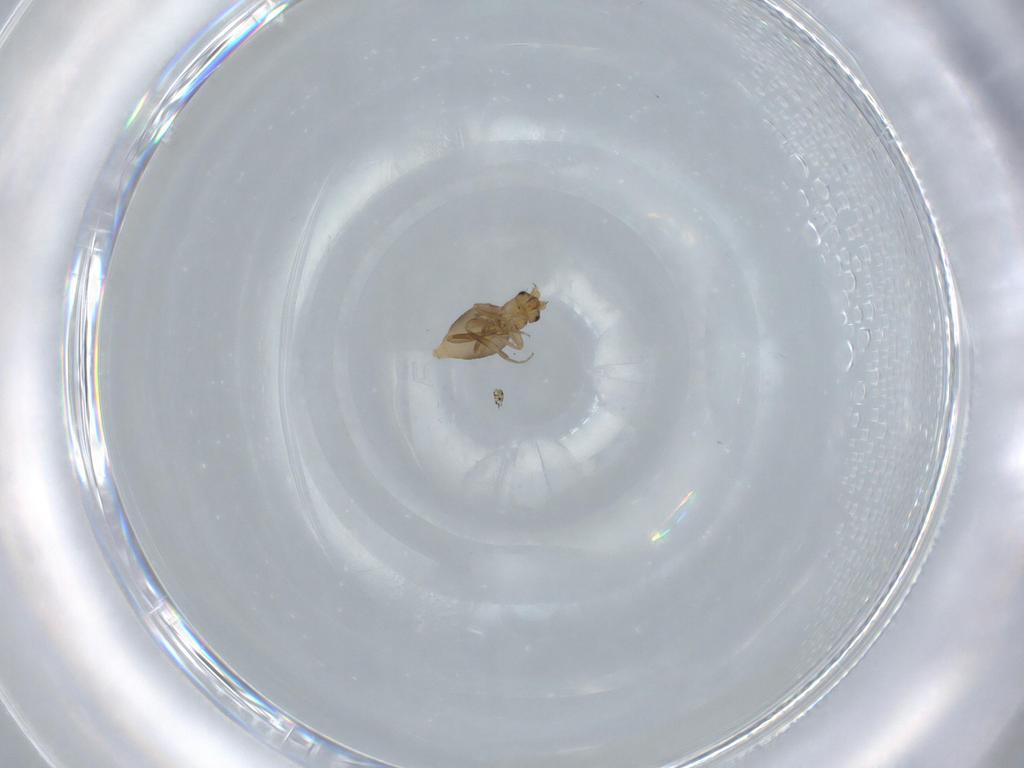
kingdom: Animalia
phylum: Arthropoda
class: Insecta
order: Diptera
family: Phoridae
